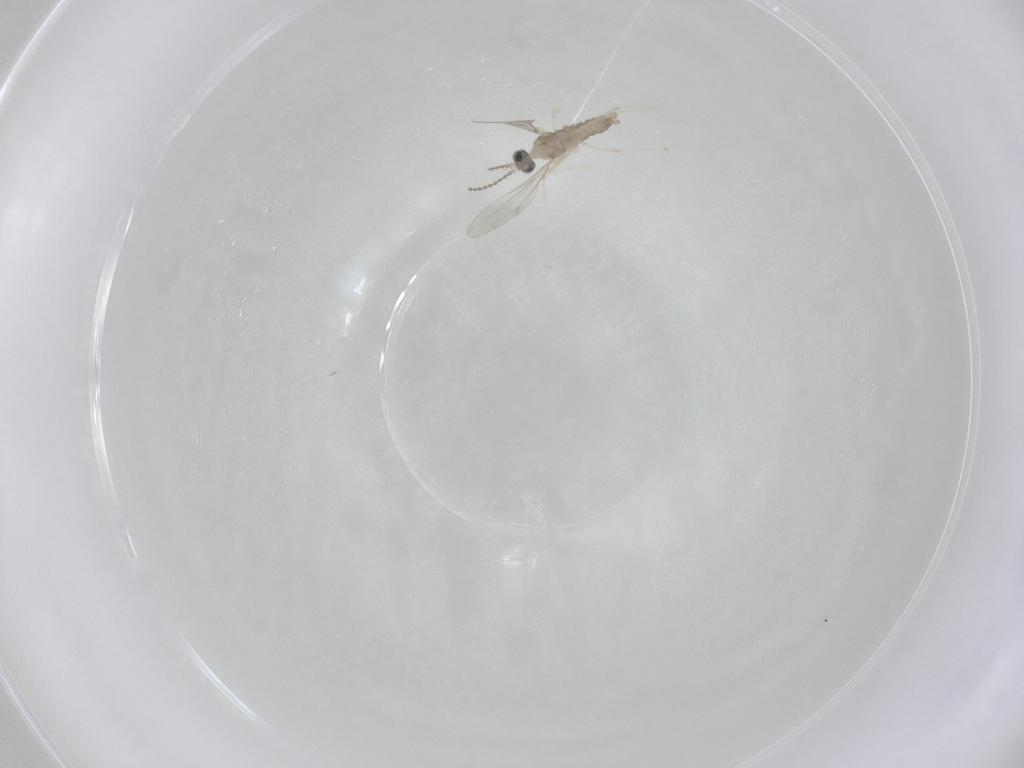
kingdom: Animalia
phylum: Arthropoda
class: Insecta
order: Diptera
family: Cecidomyiidae
